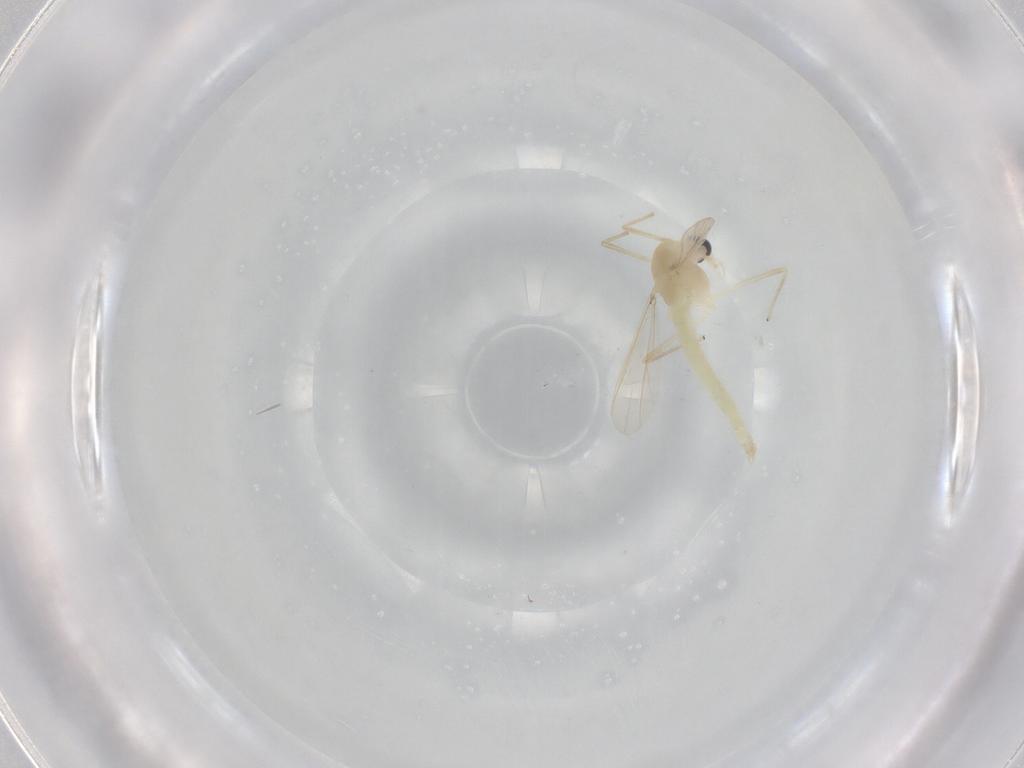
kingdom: Animalia
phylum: Arthropoda
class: Insecta
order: Diptera
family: Chironomidae
